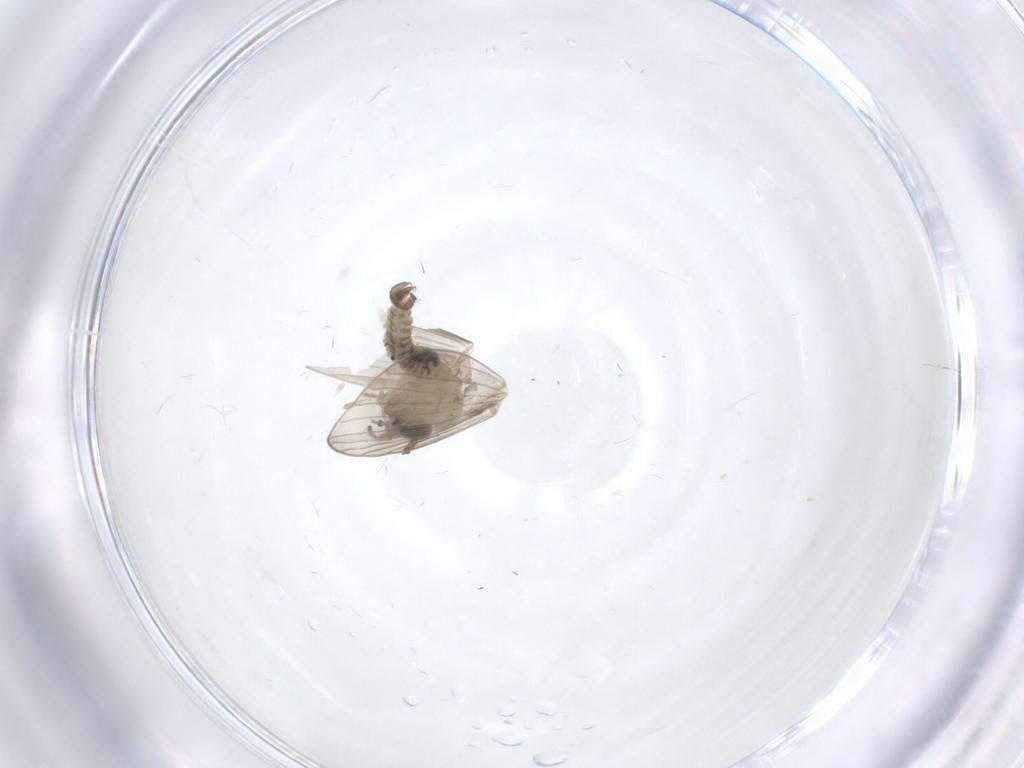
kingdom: Animalia
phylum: Arthropoda
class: Insecta
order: Diptera
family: Psychodidae
